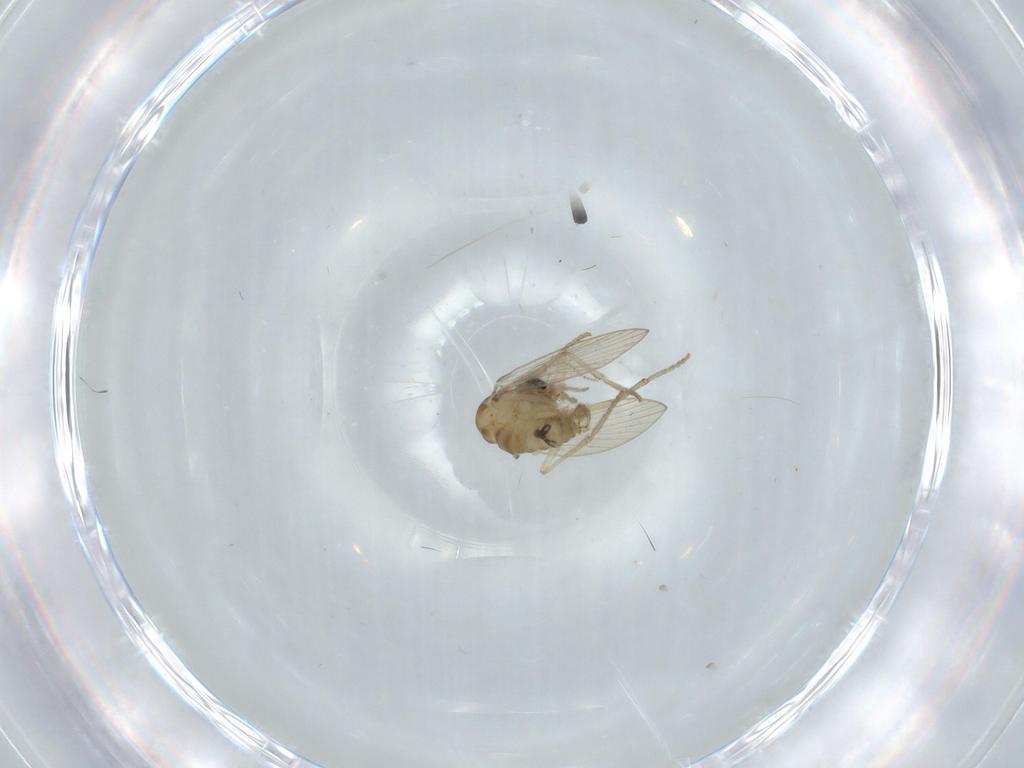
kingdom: Animalia
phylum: Arthropoda
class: Insecta
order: Diptera
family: Psychodidae
